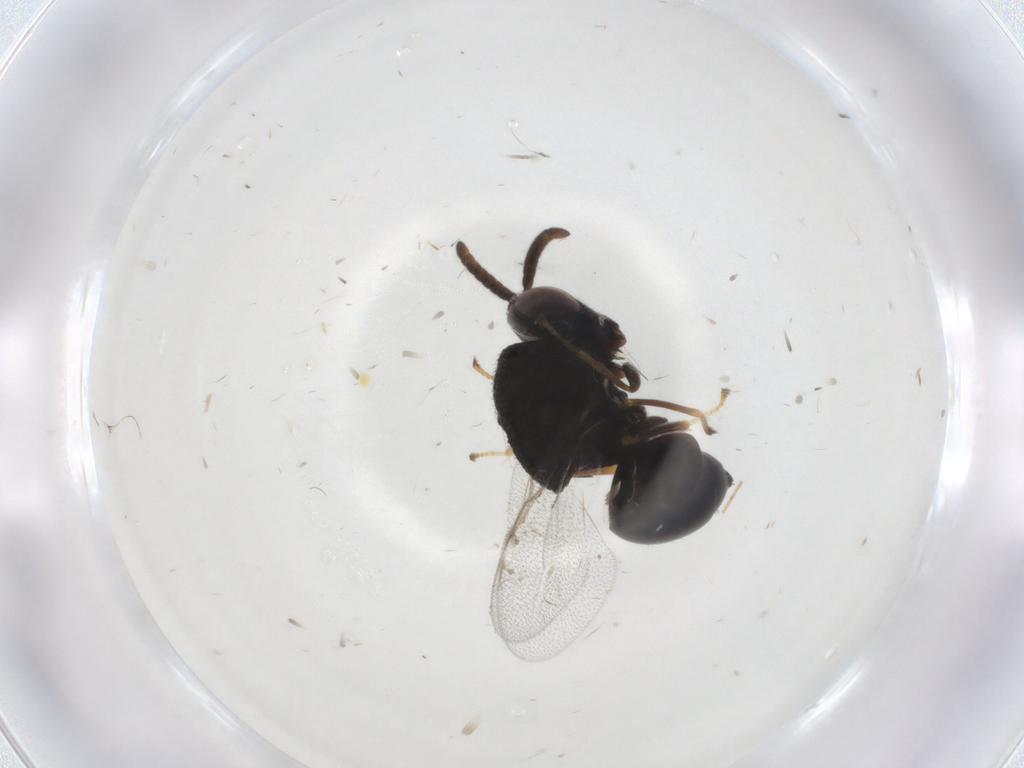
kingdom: Animalia
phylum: Arthropoda
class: Insecta
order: Hymenoptera
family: Perilampidae
